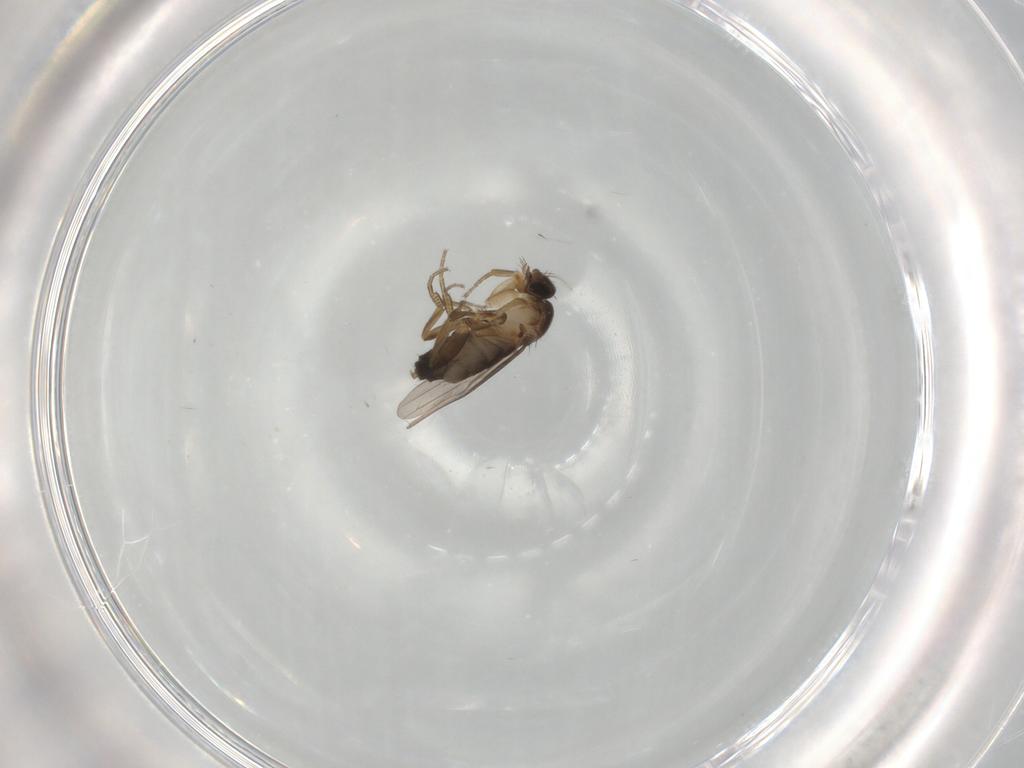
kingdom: Animalia
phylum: Arthropoda
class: Insecta
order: Diptera
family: Phoridae
